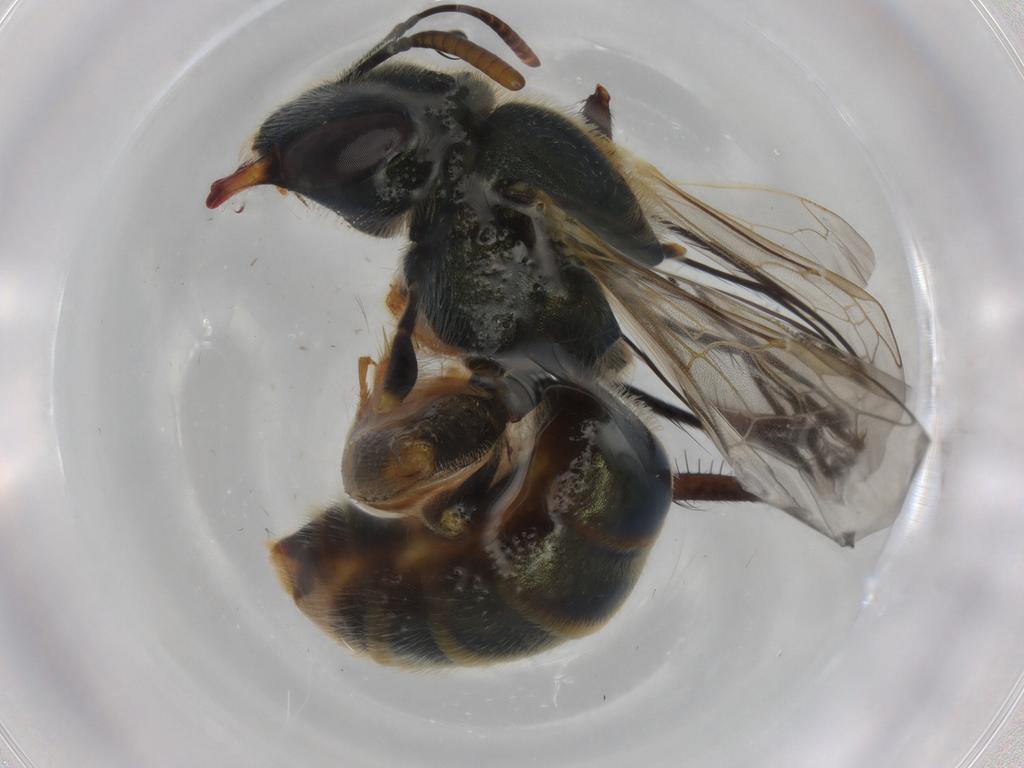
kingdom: Animalia
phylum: Arthropoda
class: Insecta
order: Hymenoptera
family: Halictidae
